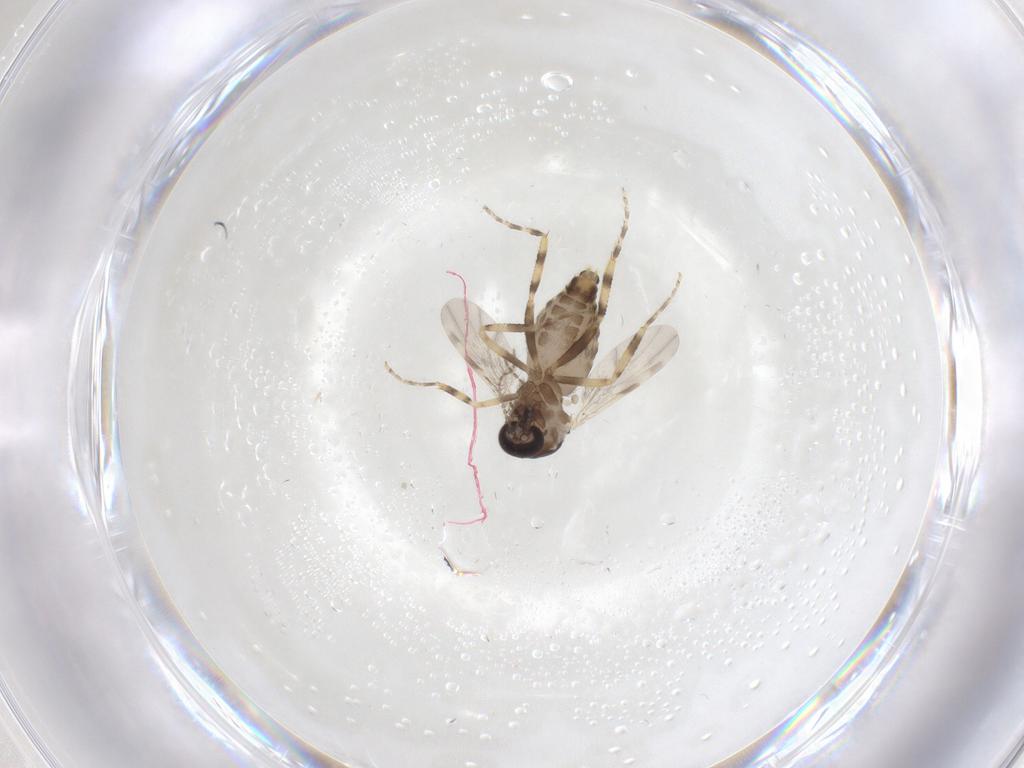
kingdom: Animalia
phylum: Arthropoda
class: Insecta
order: Diptera
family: Ceratopogonidae
